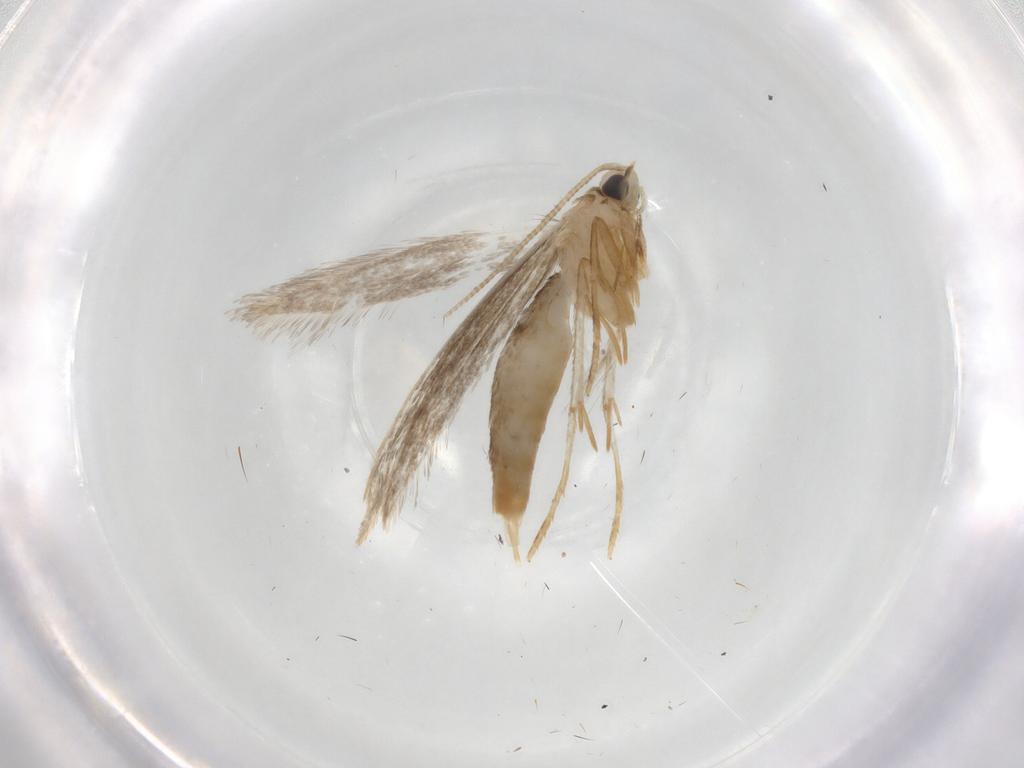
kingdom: Animalia
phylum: Arthropoda
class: Insecta
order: Lepidoptera
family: Tineidae
